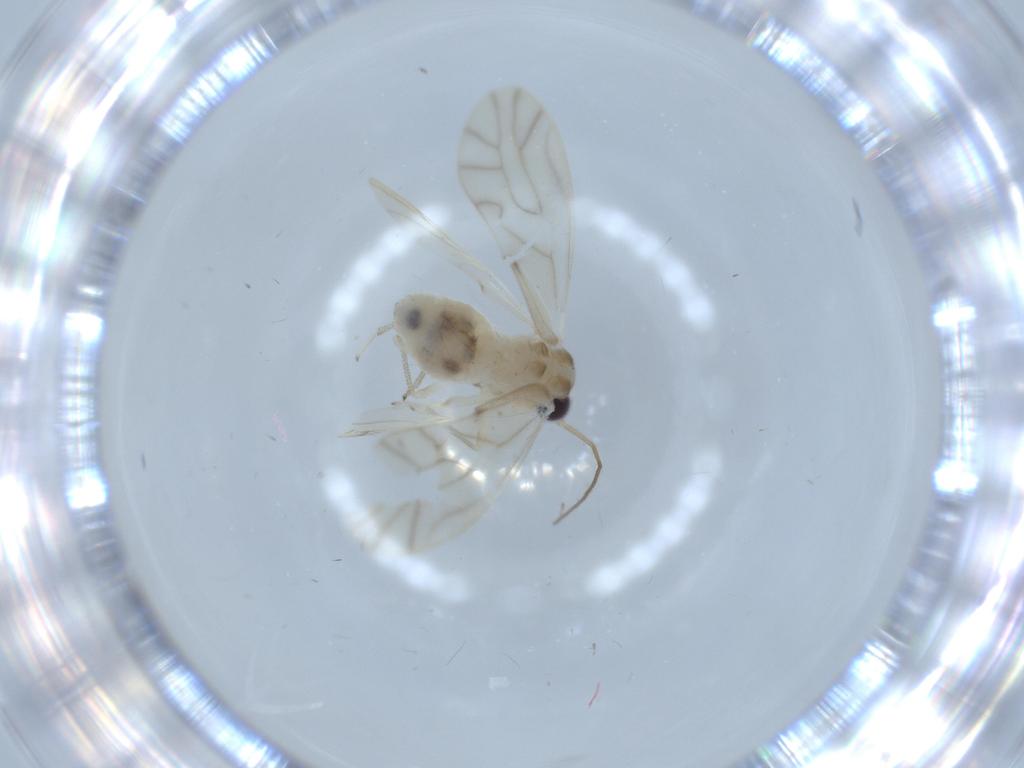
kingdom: Animalia
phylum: Arthropoda
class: Insecta
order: Psocodea
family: Caeciliusidae
